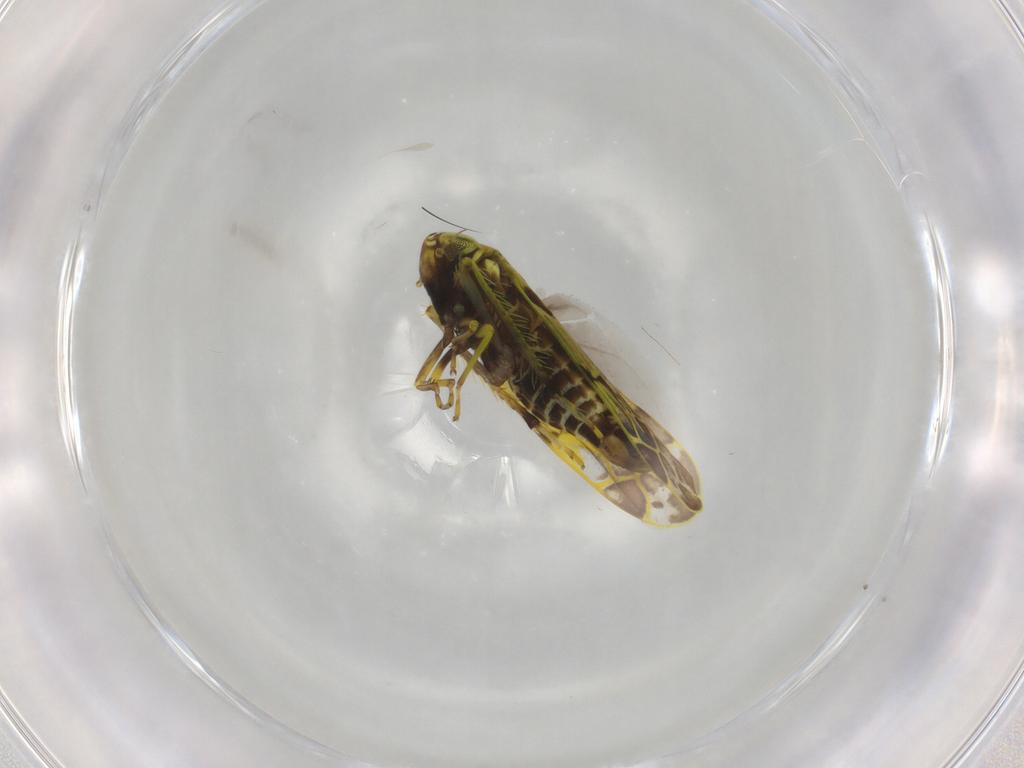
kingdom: Animalia
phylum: Arthropoda
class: Insecta
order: Hemiptera
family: Cicadellidae
